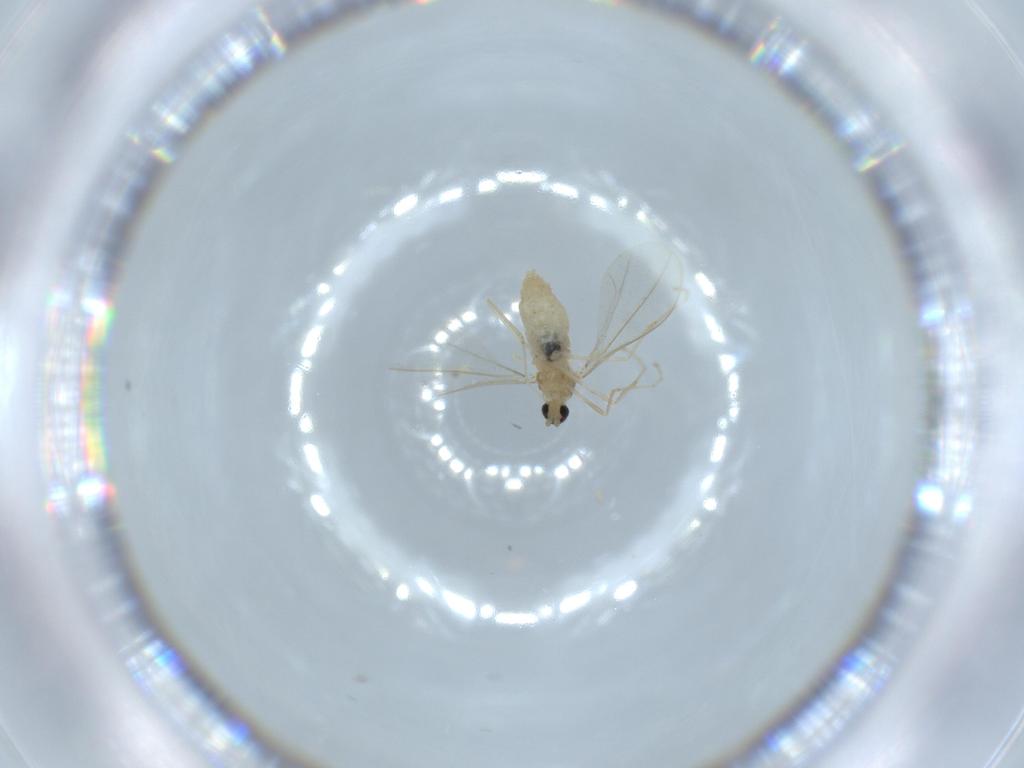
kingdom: Animalia
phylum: Arthropoda
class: Insecta
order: Diptera
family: Cecidomyiidae
